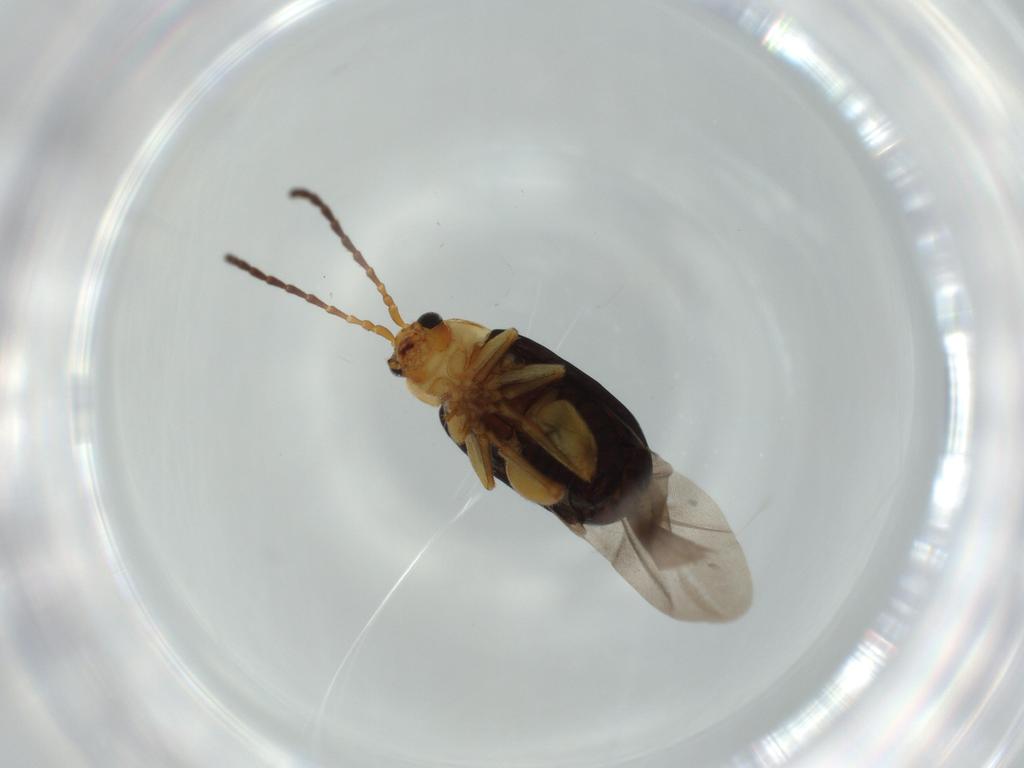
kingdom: Animalia
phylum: Arthropoda
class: Insecta
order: Coleoptera
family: Chrysomelidae
